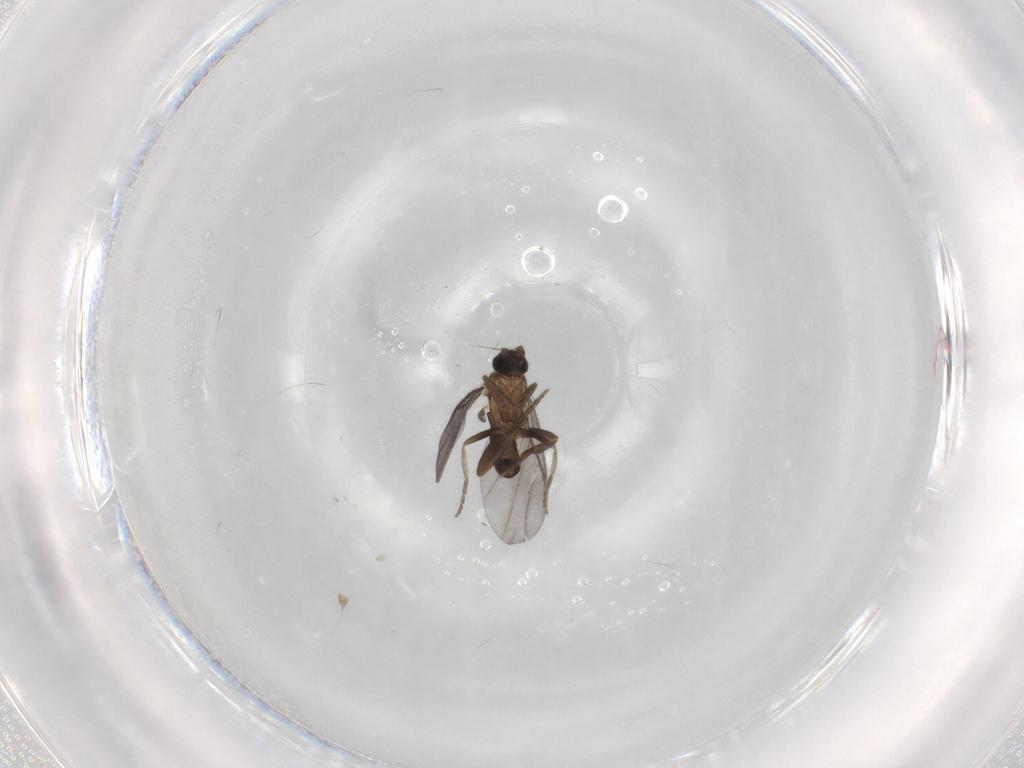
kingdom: Animalia
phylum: Arthropoda
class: Insecta
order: Diptera
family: Phoridae
